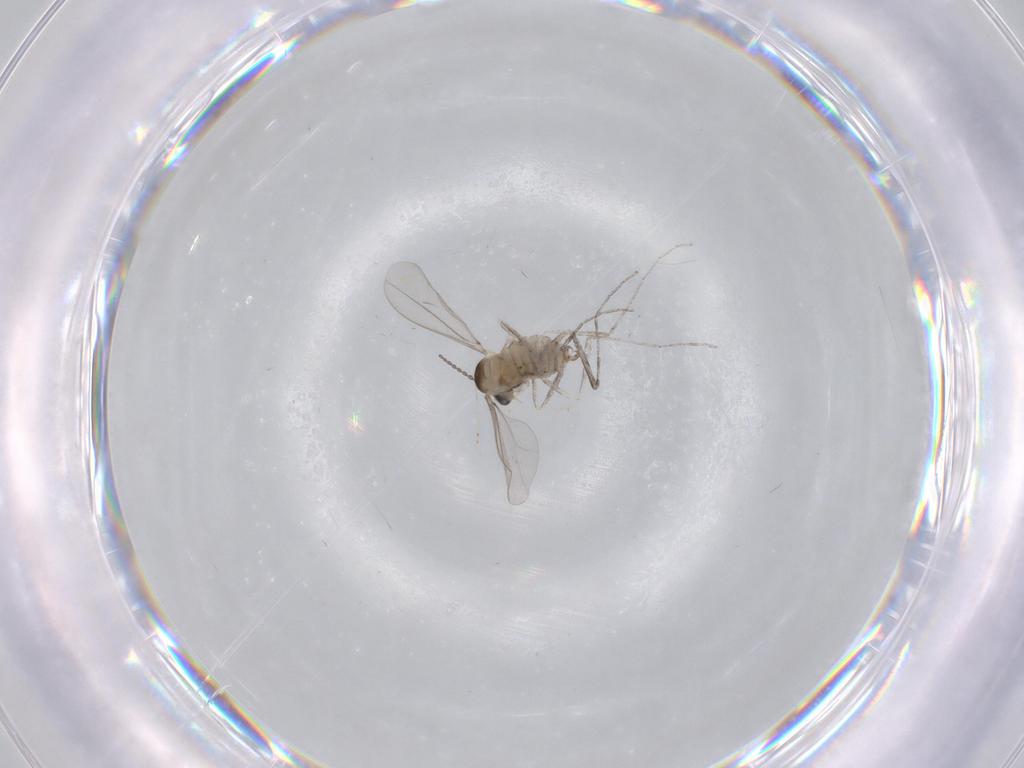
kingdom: Animalia
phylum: Arthropoda
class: Insecta
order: Diptera
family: Cecidomyiidae
